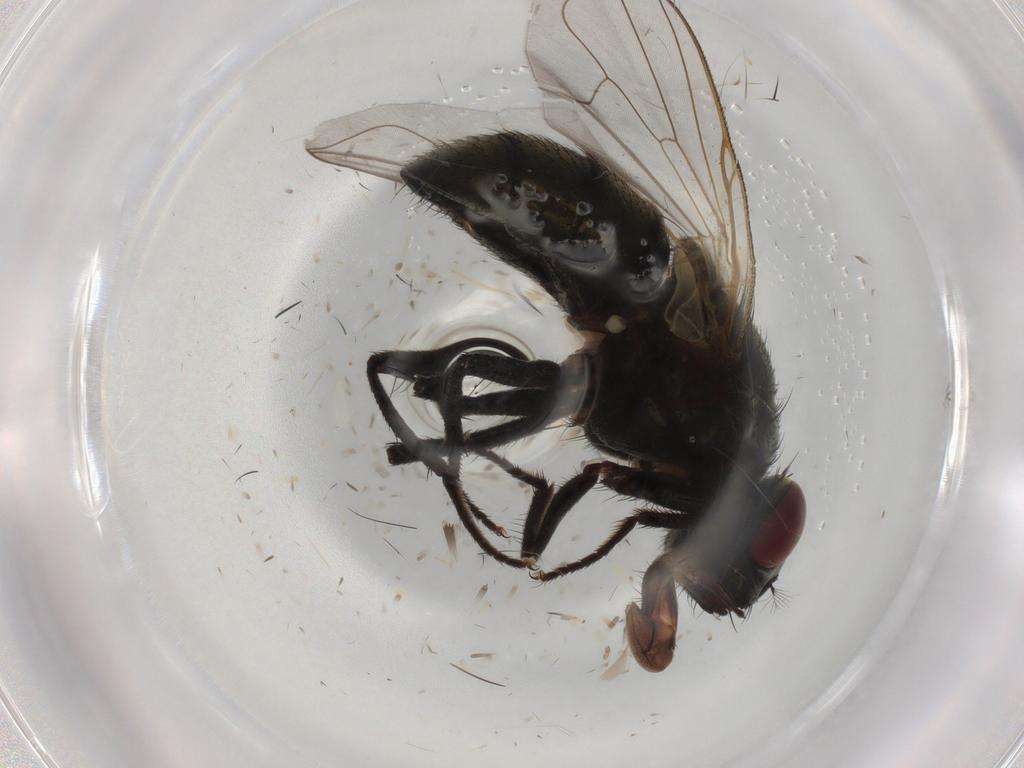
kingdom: Animalia
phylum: Arthropoda
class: Insecta
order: Diptera
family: Muscidae
